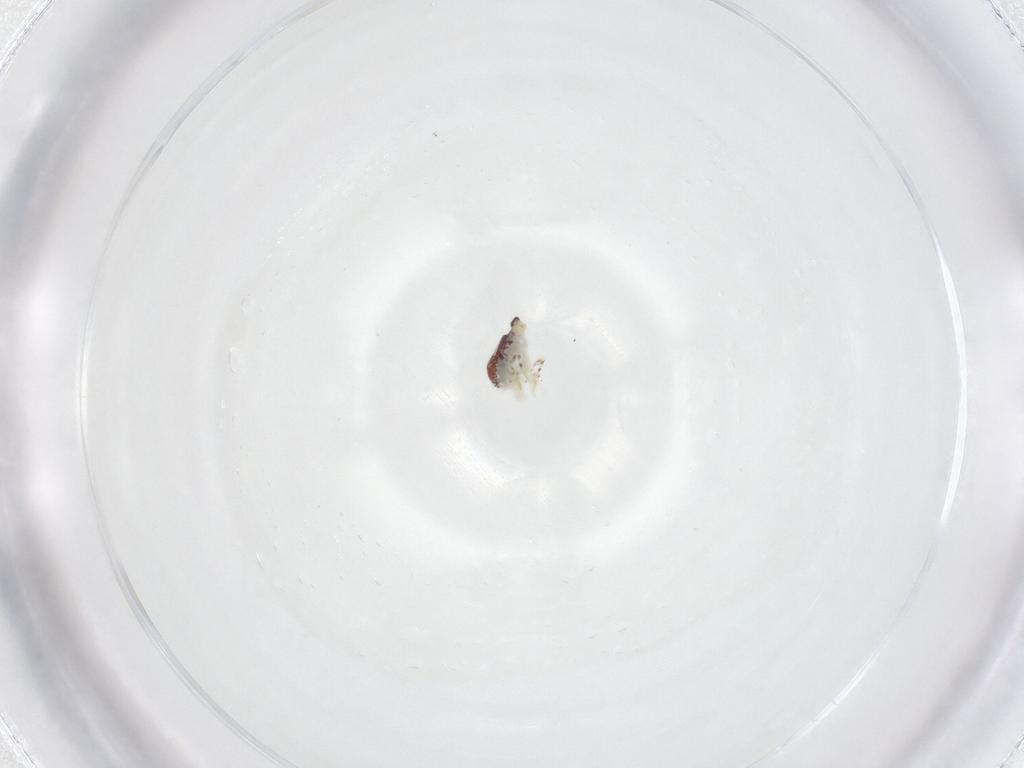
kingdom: Animalia
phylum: Arthropoda
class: Collembola
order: Symphypleona
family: Bourletiellidae
